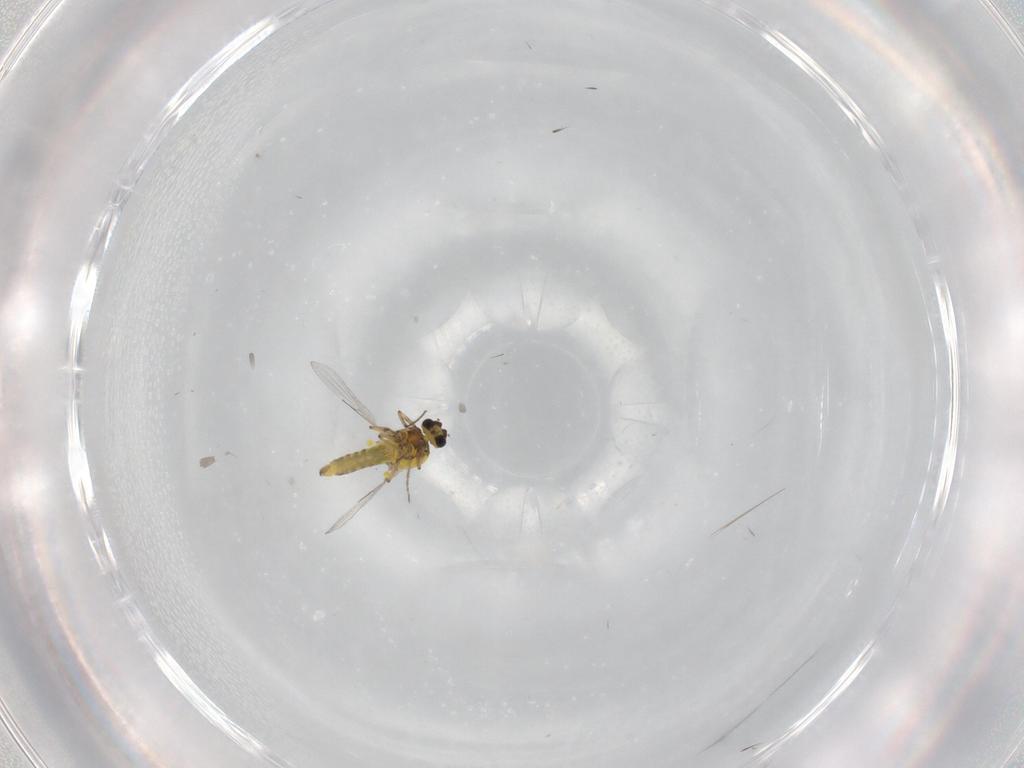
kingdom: Animalia
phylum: Arthropoda
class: Insecta
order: Diptera
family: Ceratopogonidae
